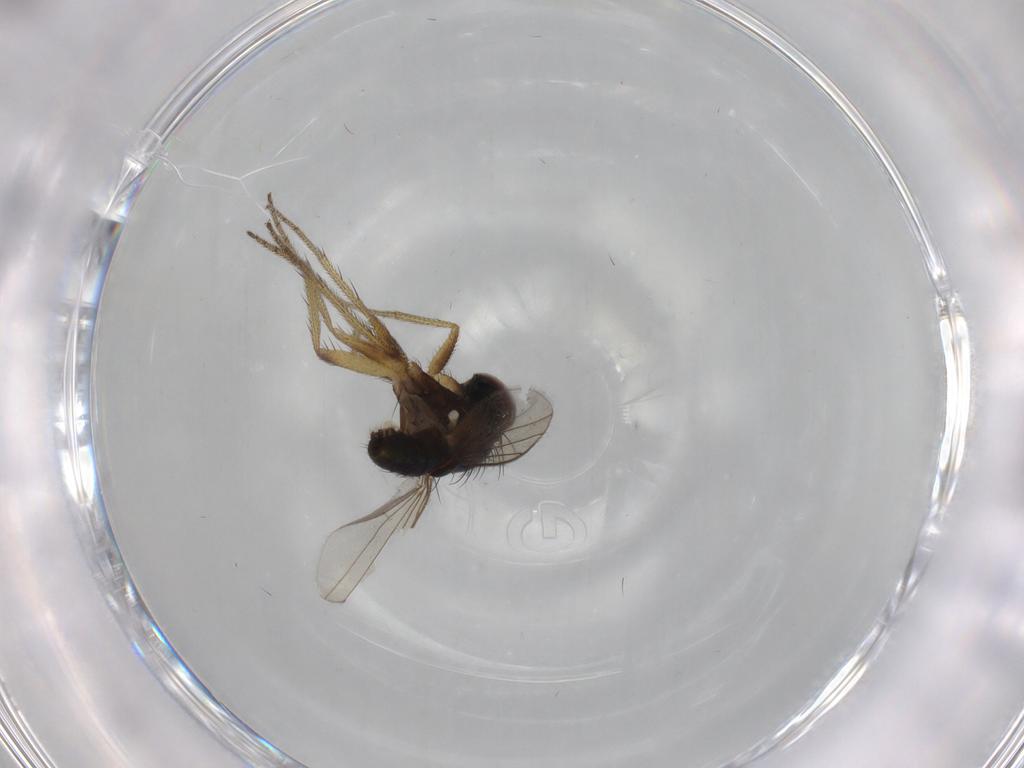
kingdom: Animalia
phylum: Arthropoda
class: Insecta
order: Diptera
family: Dolichopodidae
